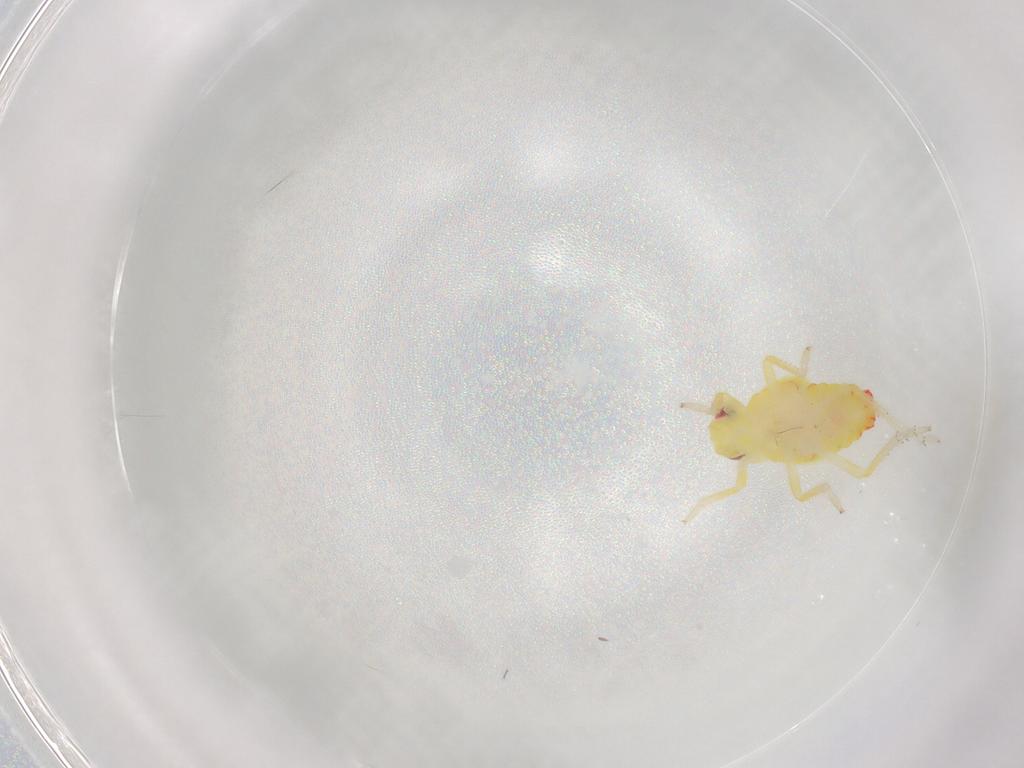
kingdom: Animalia
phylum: Arthropoda
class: Insecta
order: Hemiptera
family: Tropiduchidae
